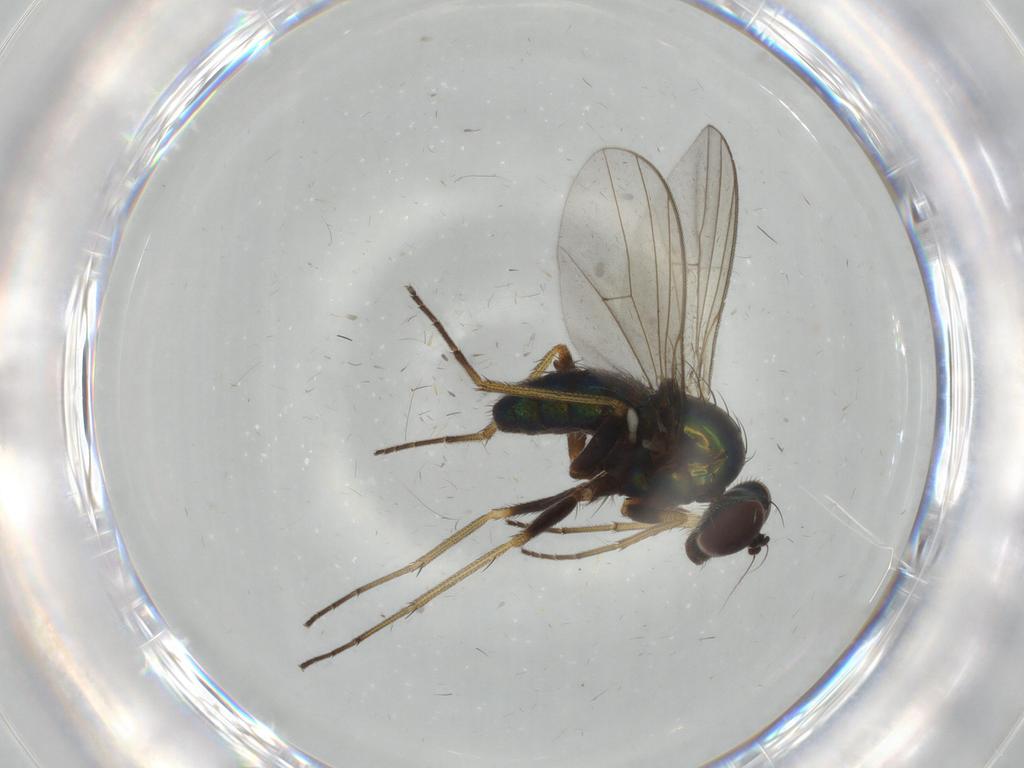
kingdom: Animalia
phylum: Arthropoda
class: Insecta
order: Diptera
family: Dolichopodidae
